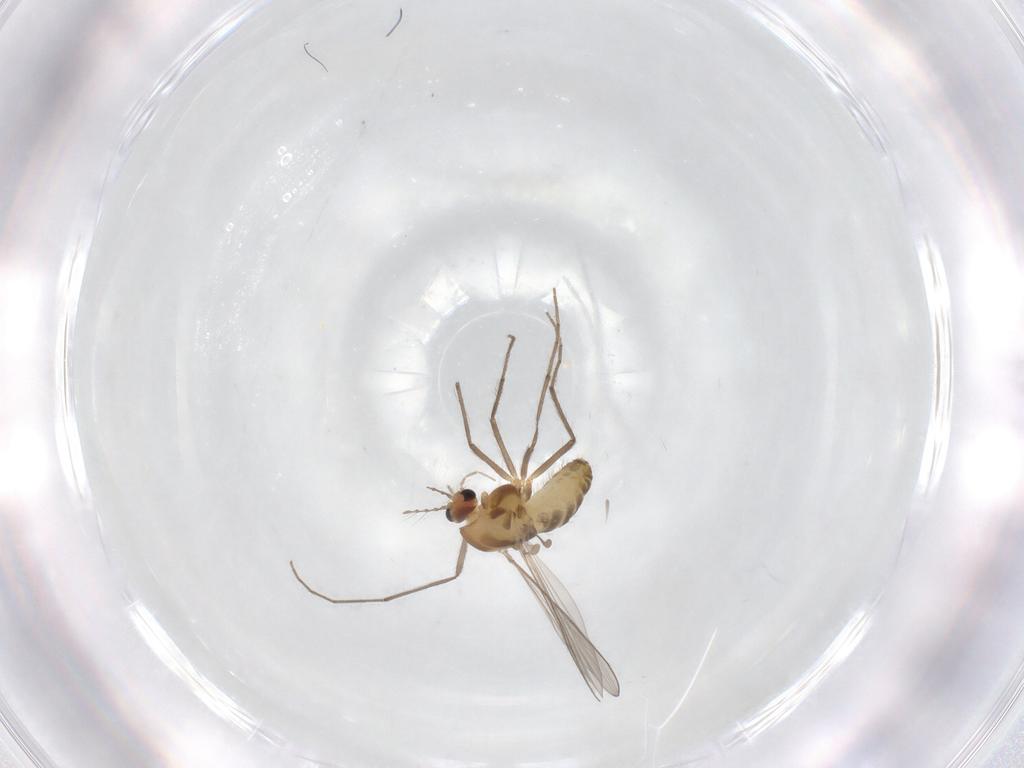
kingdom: Animalia
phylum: Arthropoda
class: Insecta
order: Diptera
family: Chironomidae
